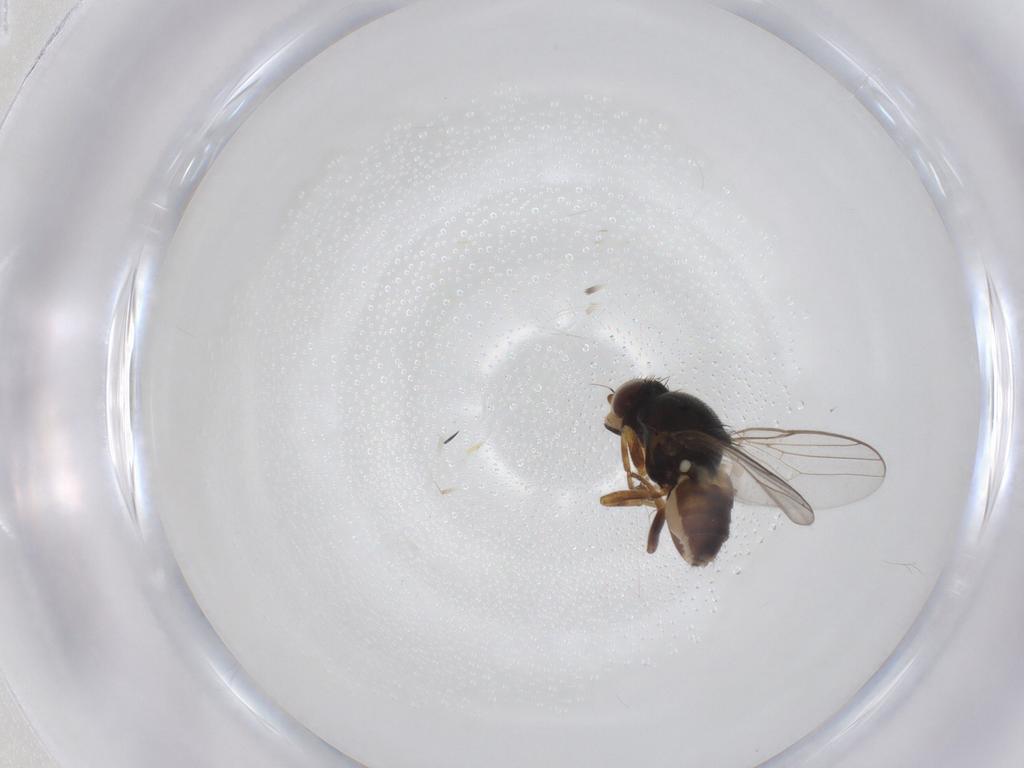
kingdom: Animalia
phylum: Arthropoda
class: Insecta
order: Diptera
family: Chloropidae
